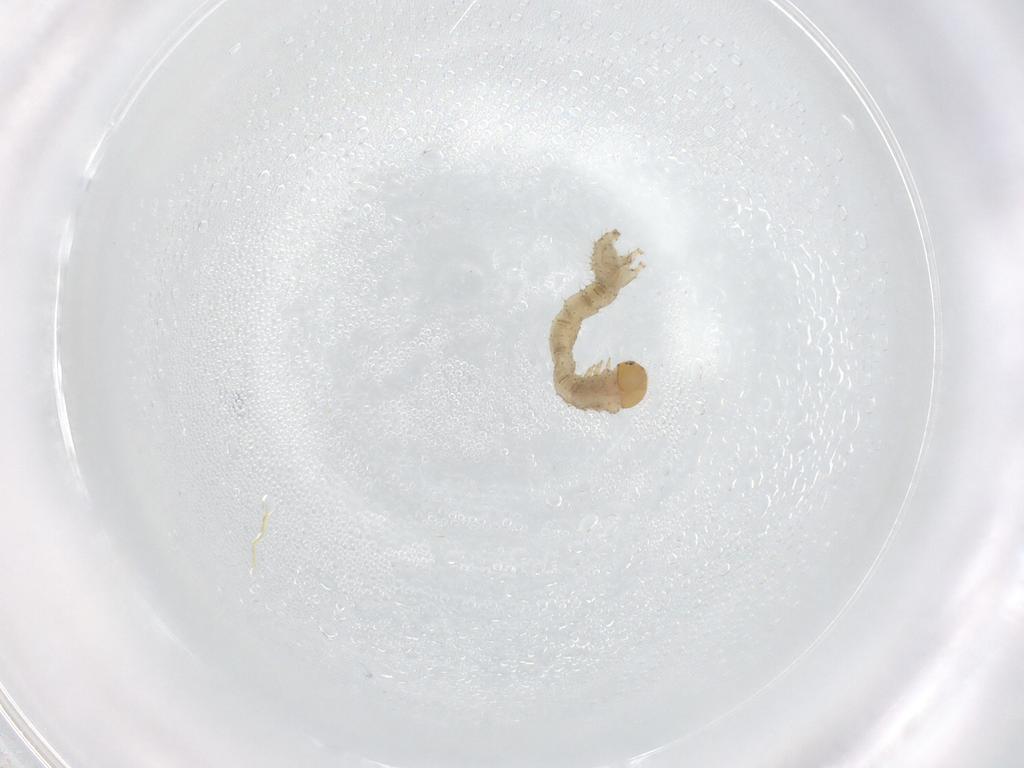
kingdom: Animalia
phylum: Arthropoda
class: Insecta
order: Lepidoptera
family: Geometridae
